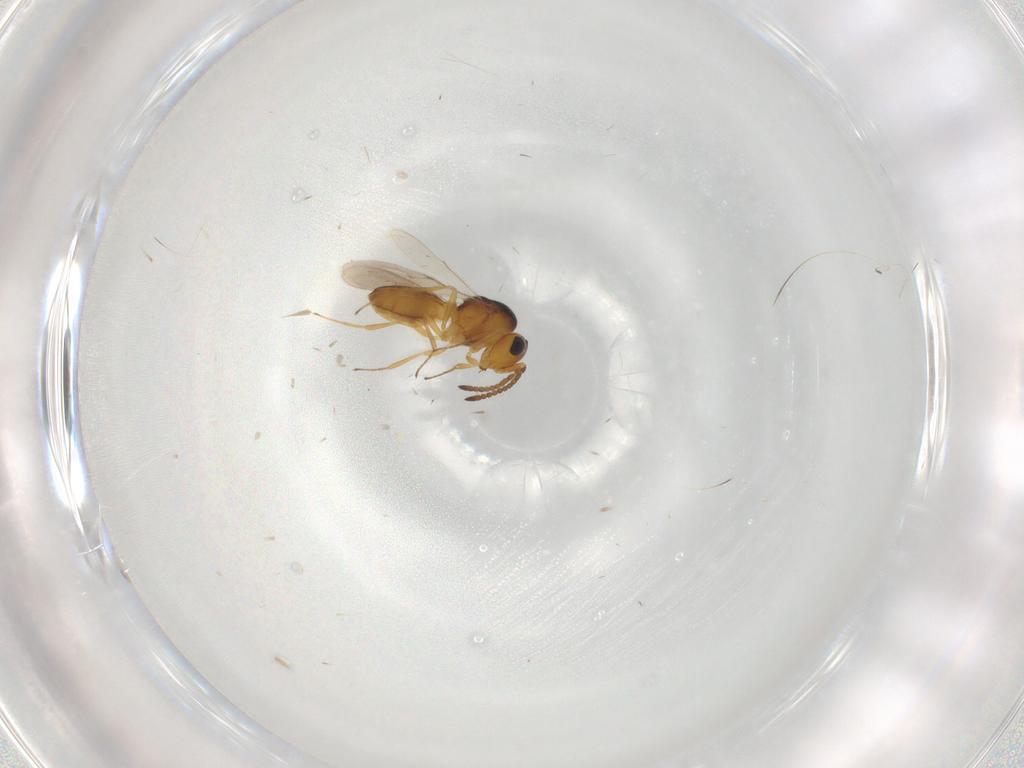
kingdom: Animalia
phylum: Arthropoda
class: Insecta
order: Hymenoptera
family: Scelionidae
